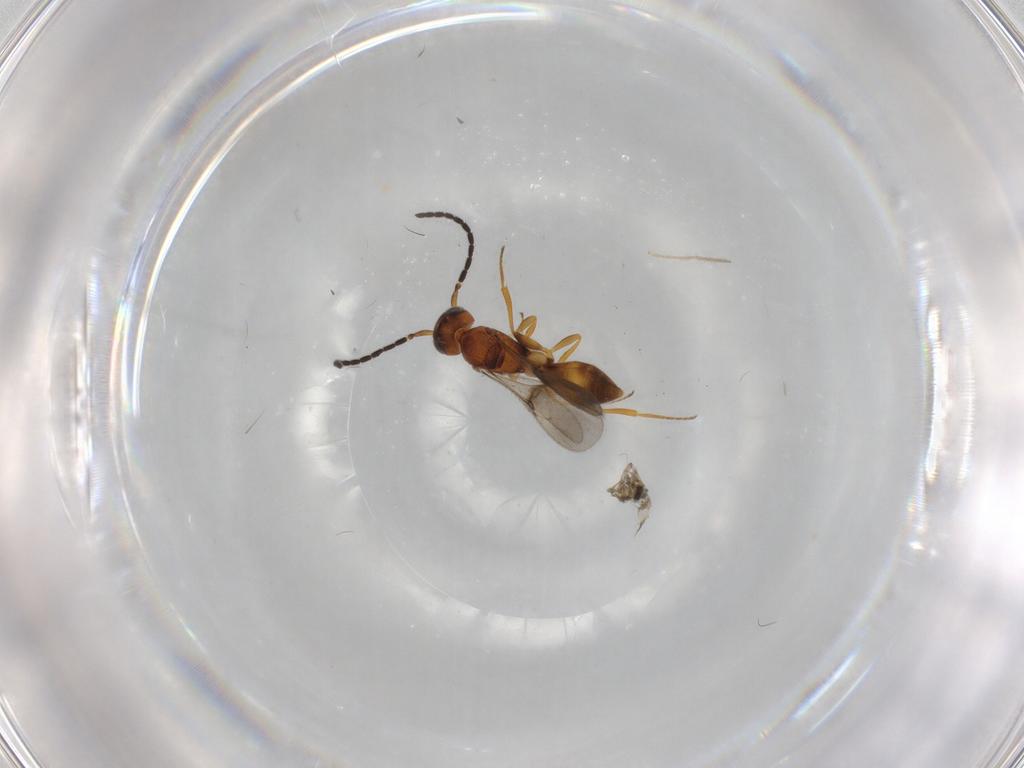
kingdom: Animalia
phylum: Arthropoda
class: Insecta
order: Hymenoptera
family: Scelionidae
